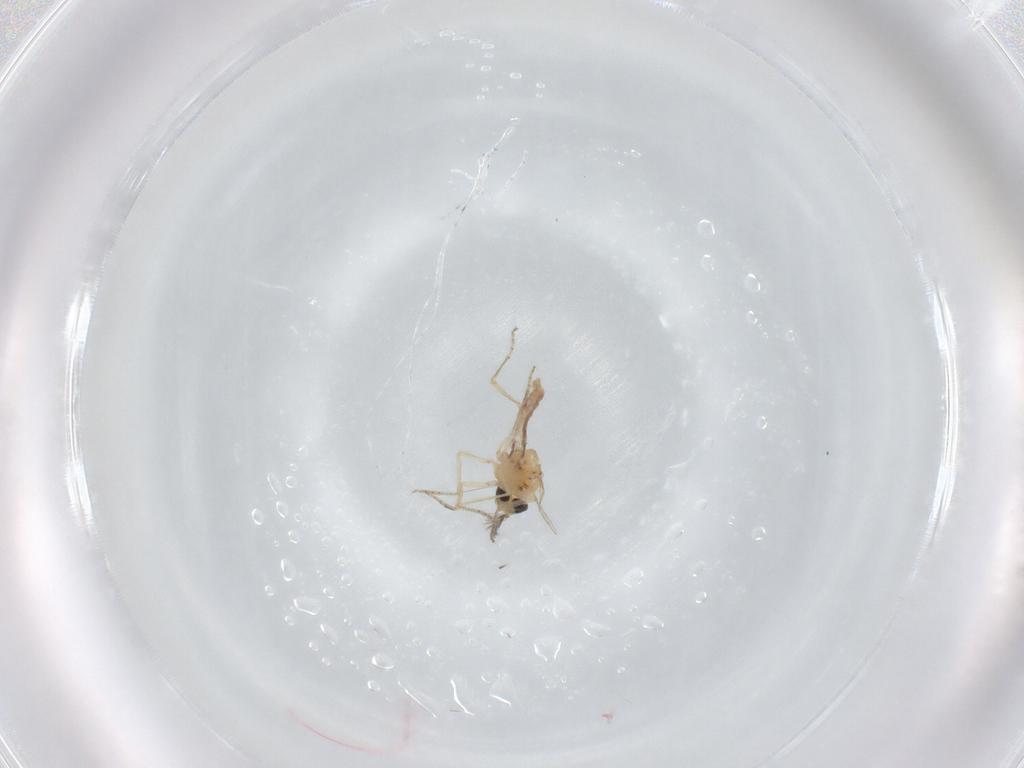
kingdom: Animalia
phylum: Arthropoda
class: Insecta
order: Diptera
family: Ceratopogonidae
